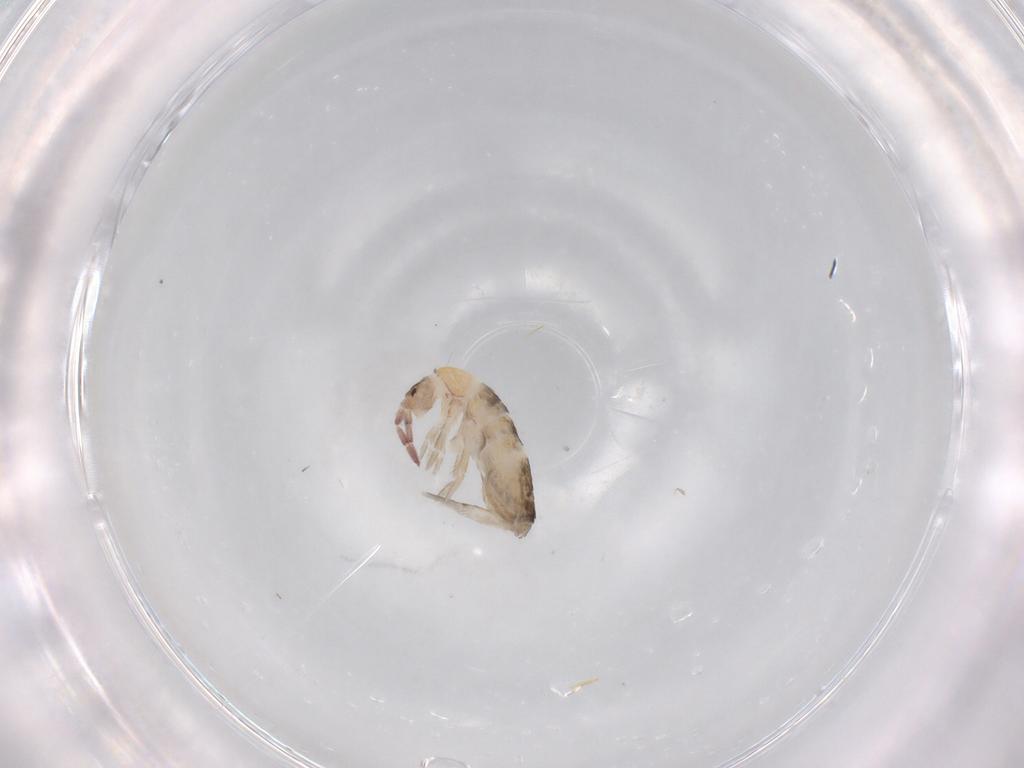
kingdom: Animalia
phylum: Arthropoda
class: Collembola
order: Entomobryomorpha
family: Entomobryidae
